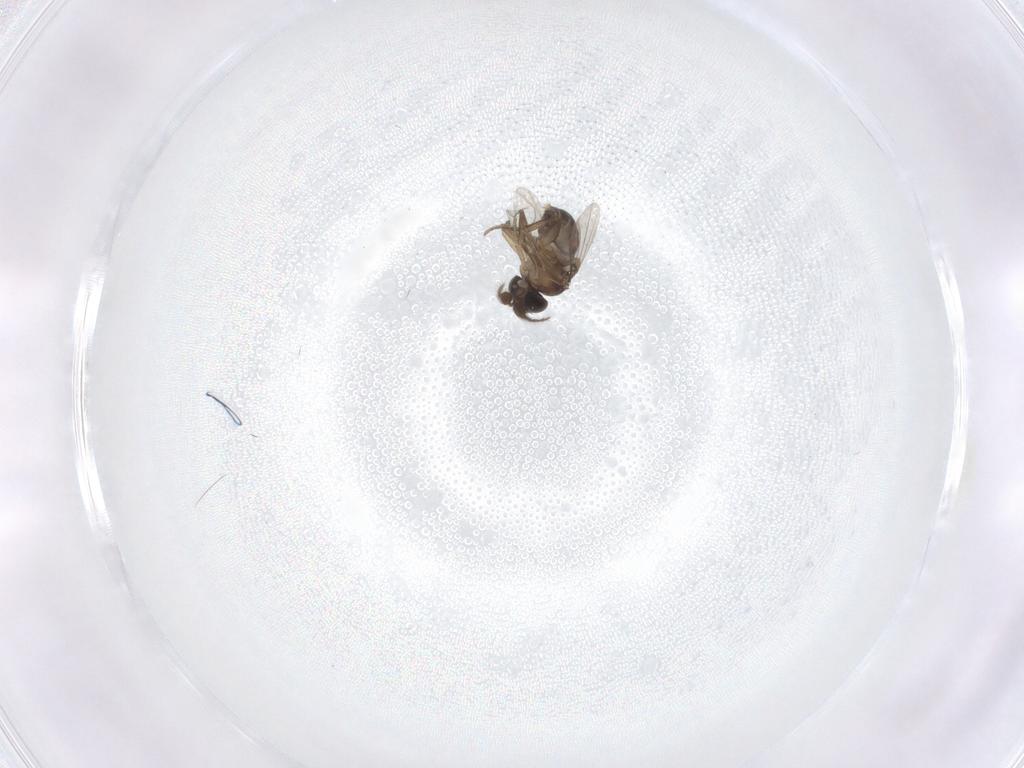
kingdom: Animalia
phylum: Arthropoda
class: Insecta
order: Diptera
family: Phoridae
